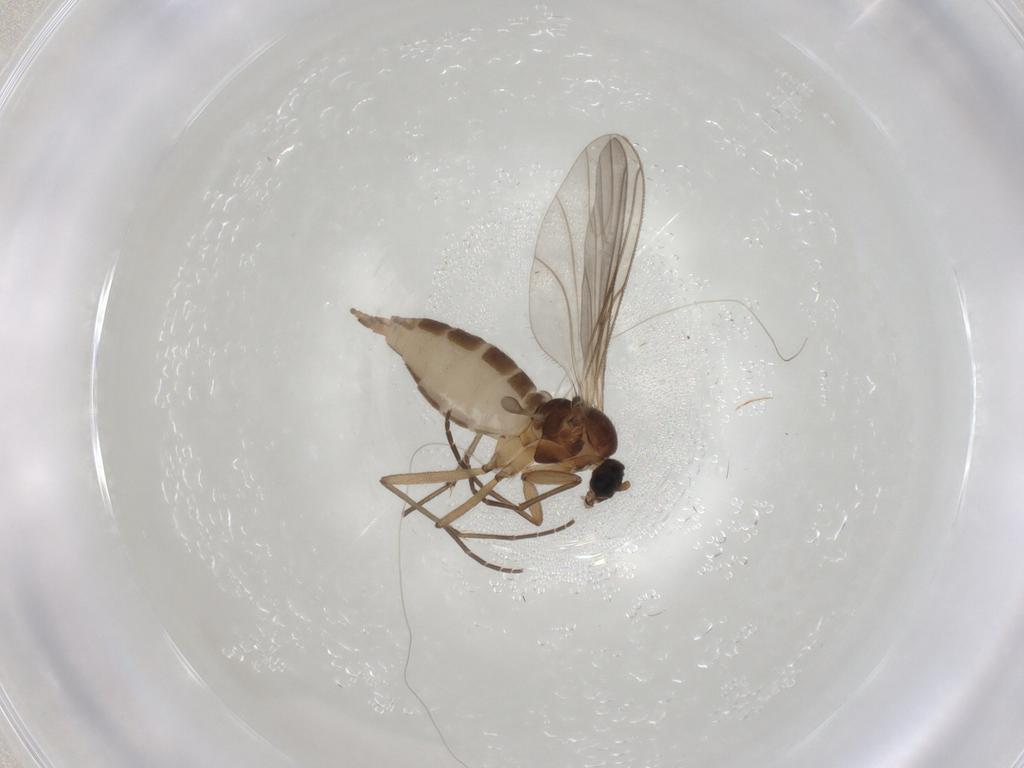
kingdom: Animalia
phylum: Arthropoda
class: Insecta
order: Diptera
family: Sciaridae
